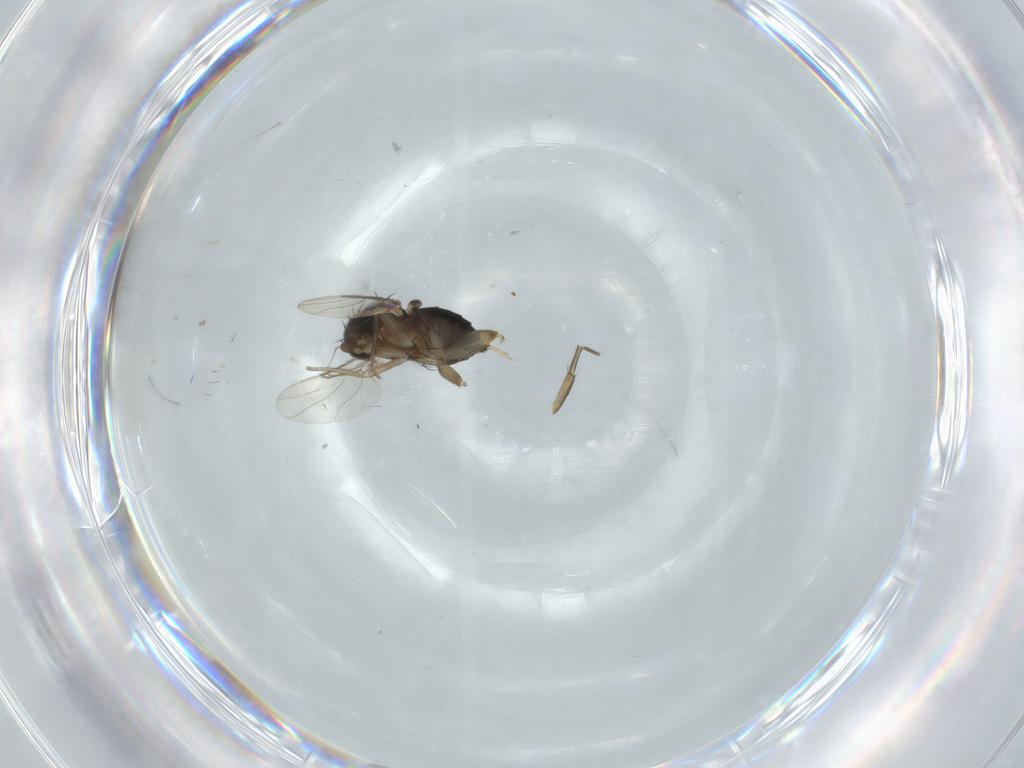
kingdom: Animalia
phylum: Arthropoda
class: Insecta
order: Diptera
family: Phoridae
